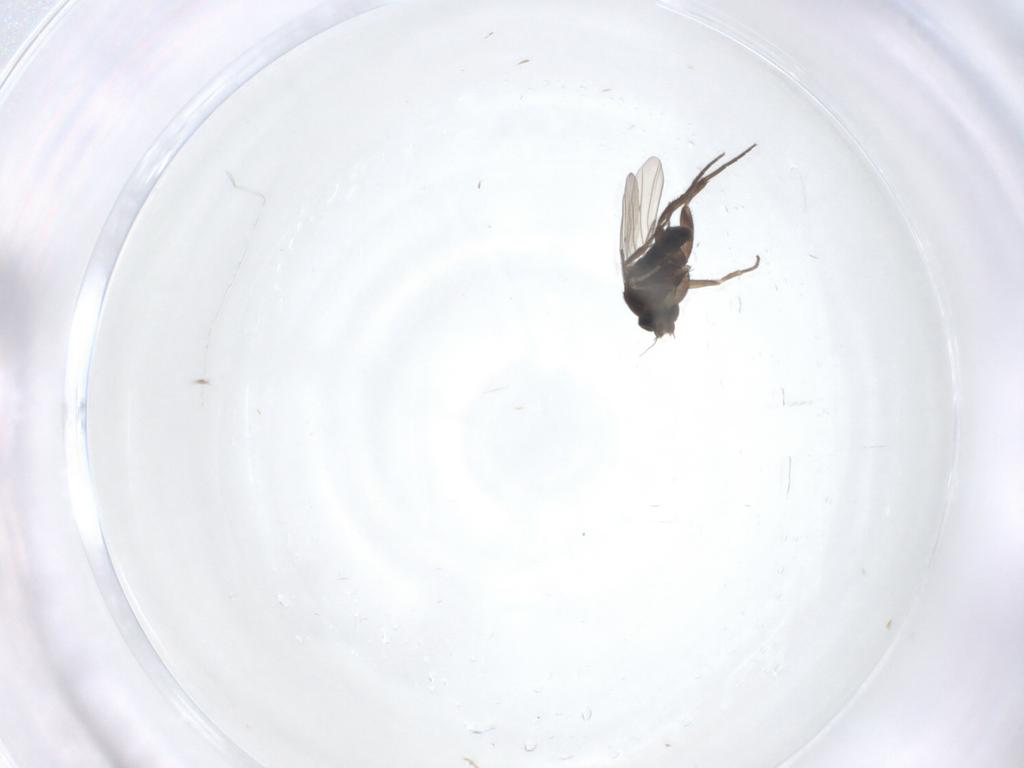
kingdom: Animalia
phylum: Arthropoda
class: Insecta
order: Diptera
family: Phoridae
